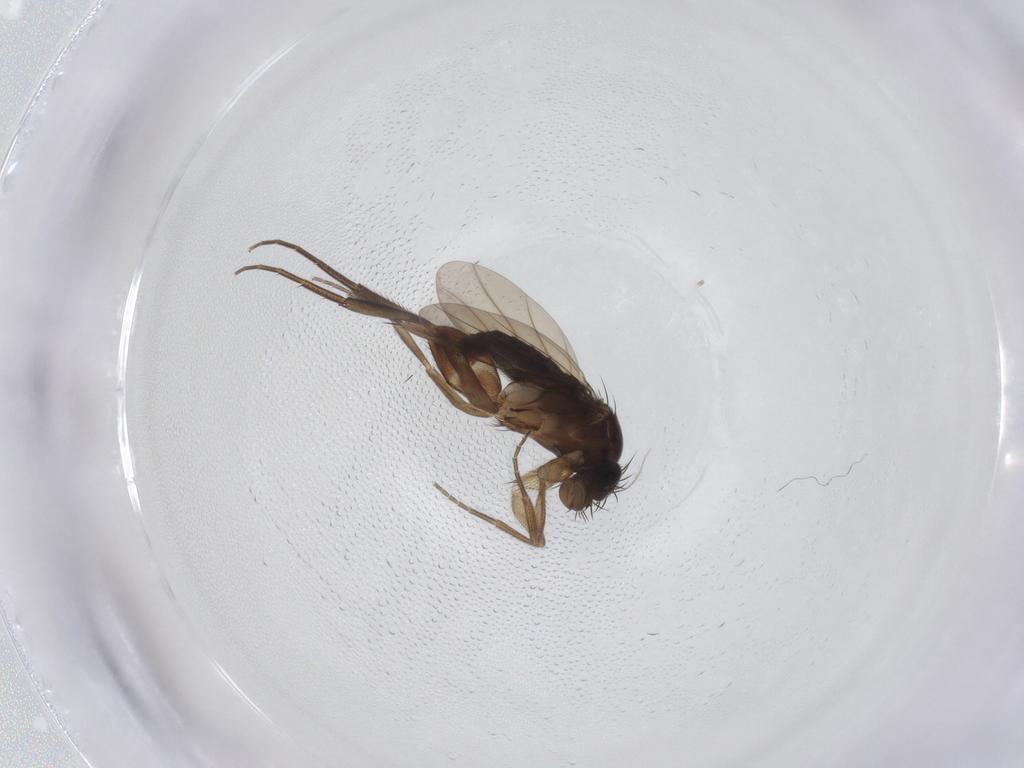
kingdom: Animalia
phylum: Arthropoda
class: Insecta
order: Diptera
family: Phoridae
